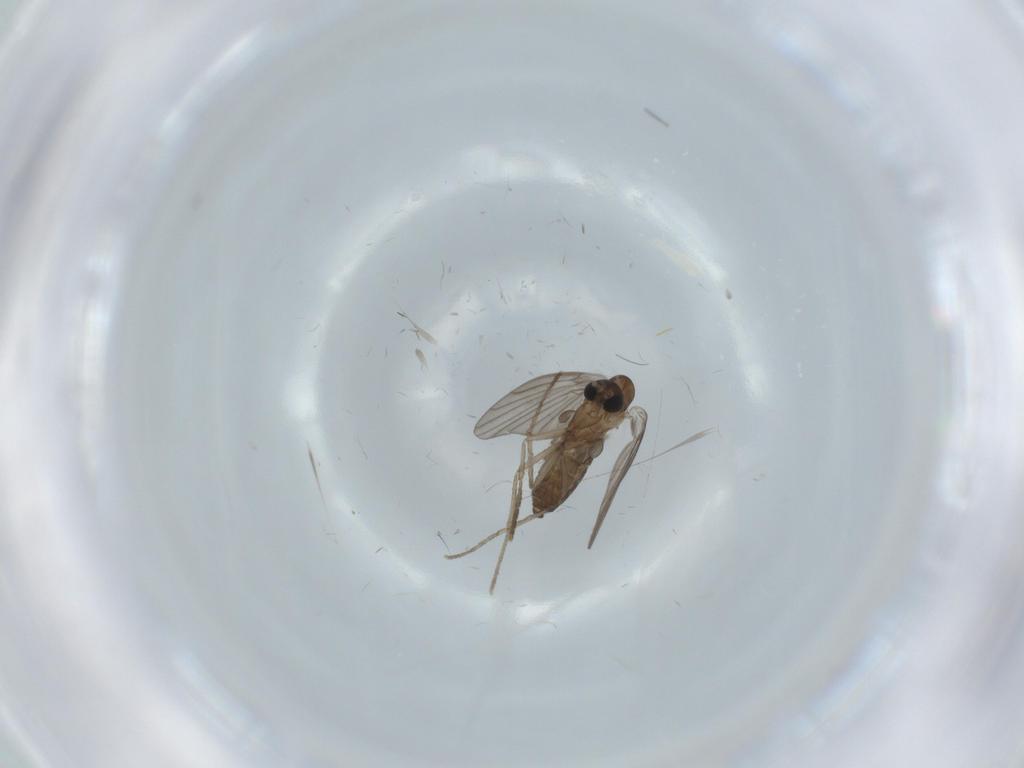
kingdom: Animalia
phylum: Arthropoda
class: Insecta
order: Diptera
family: Psychodidae
